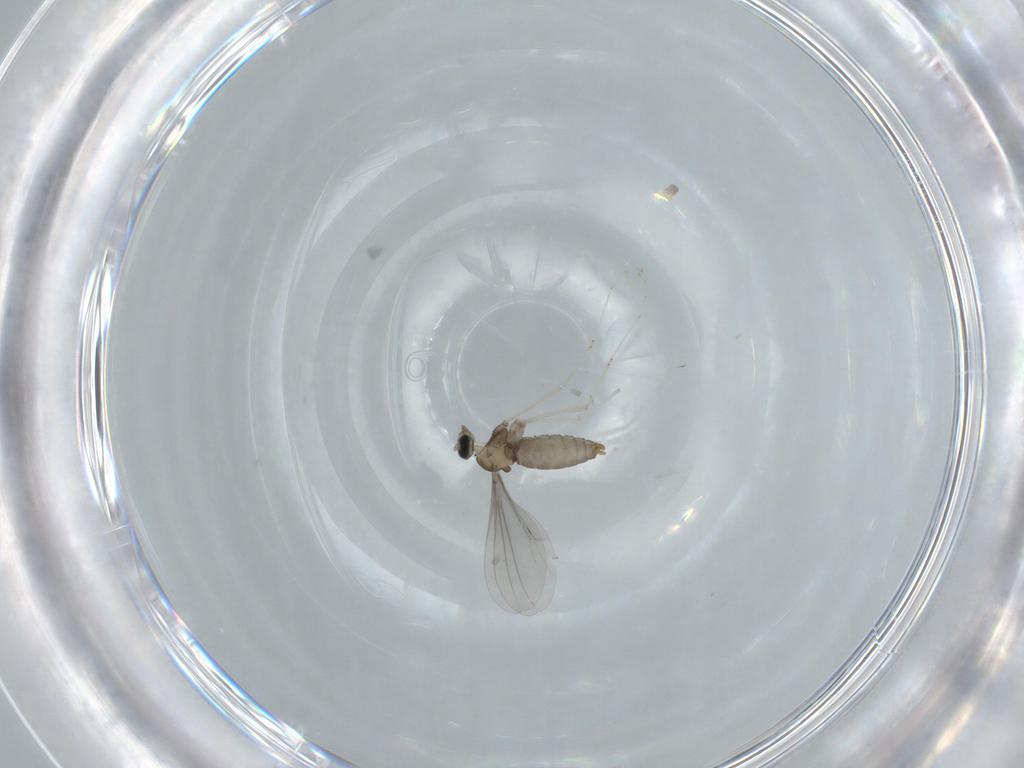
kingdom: Animalia
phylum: Arthropoda
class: Insecta
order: Diptera
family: Cecidomyiidae
